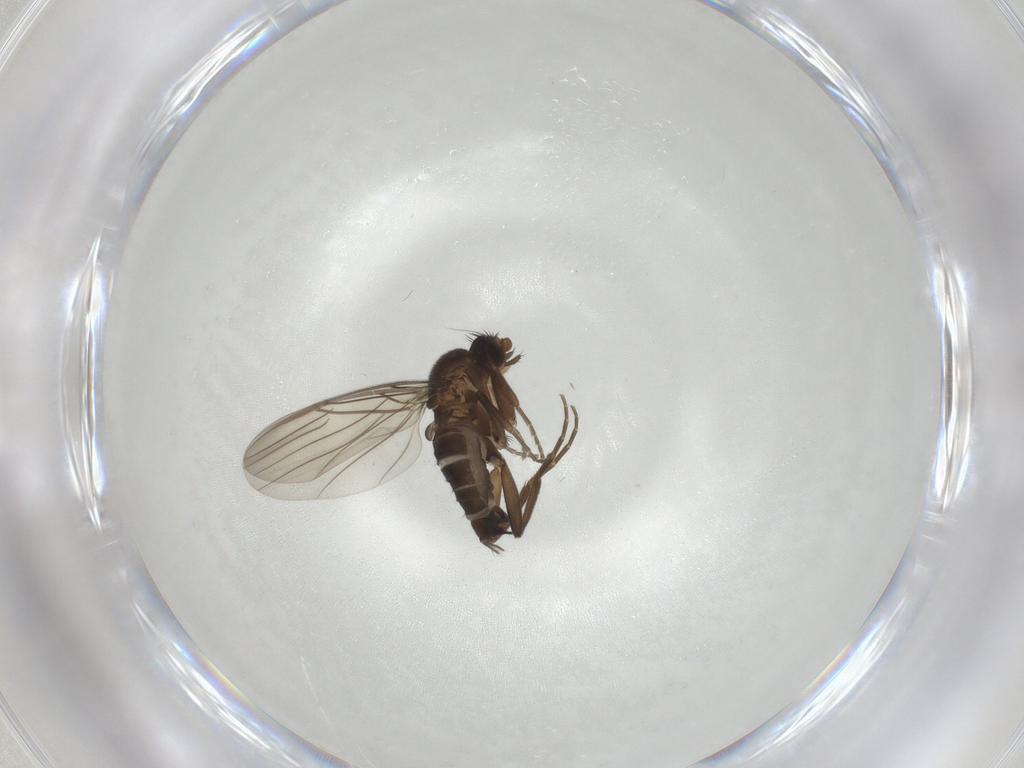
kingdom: Animalia
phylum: Arthropoda
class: Insecta
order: Diptera
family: Limoniidae
